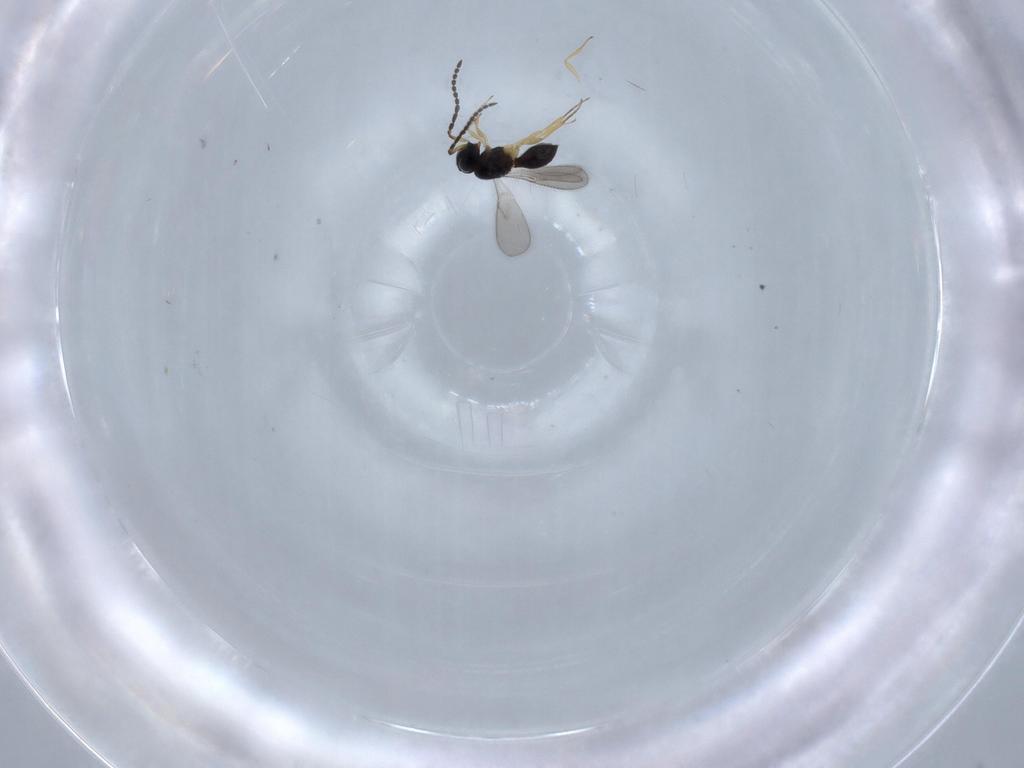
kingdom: Animalia
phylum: Arthropoda
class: Insecta
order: Hymenoptera
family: Scelionidae
